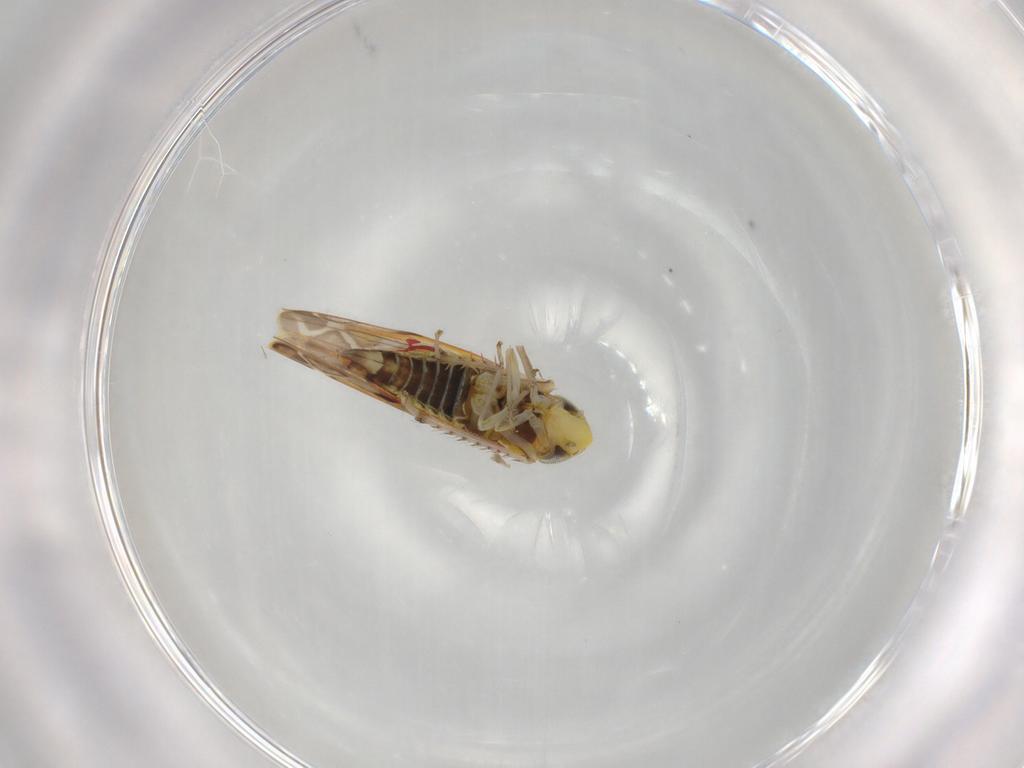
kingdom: Animalia
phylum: Arthropoda
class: Insecta
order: Hemiptera
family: Cicadellidae
